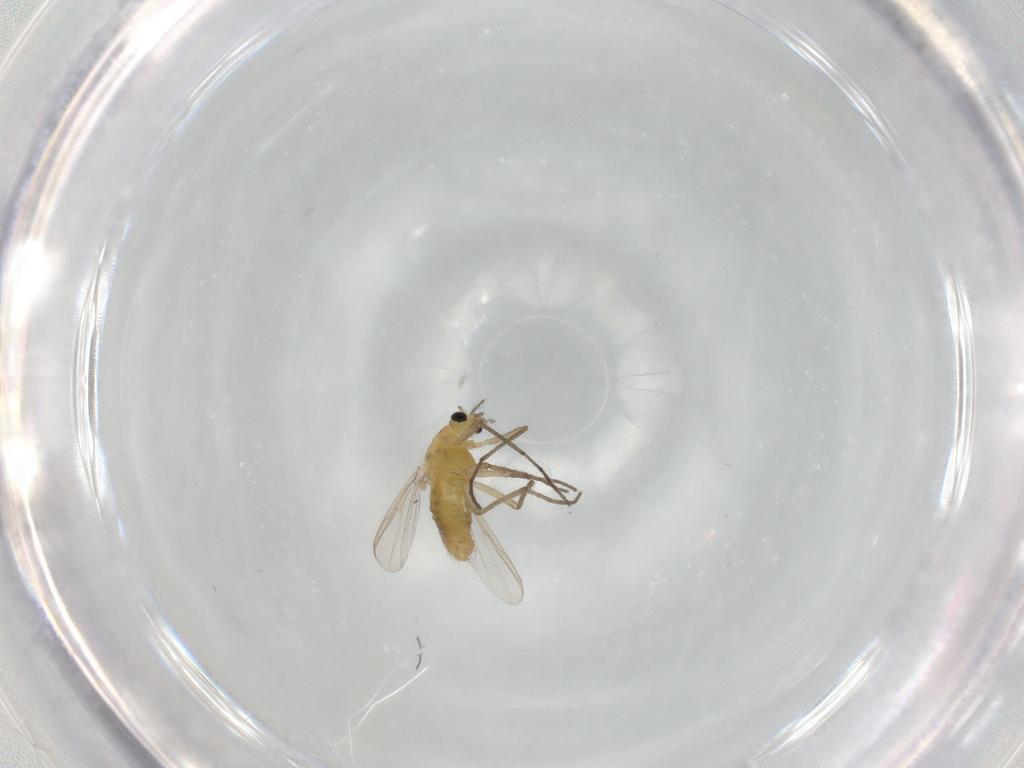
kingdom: Animalia
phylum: Arthropoda
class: Insecta
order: Diptera
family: Chironomidae
